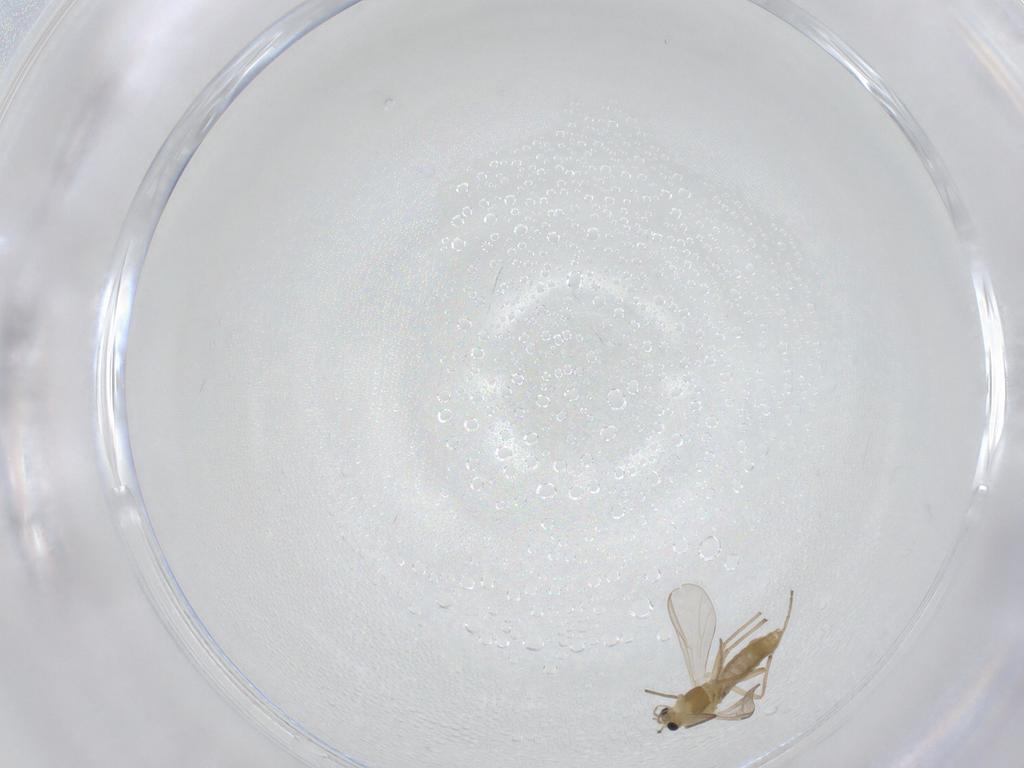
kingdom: Animalia
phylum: Arthropoda
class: Insecta
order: Diptera
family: Chironomidae
